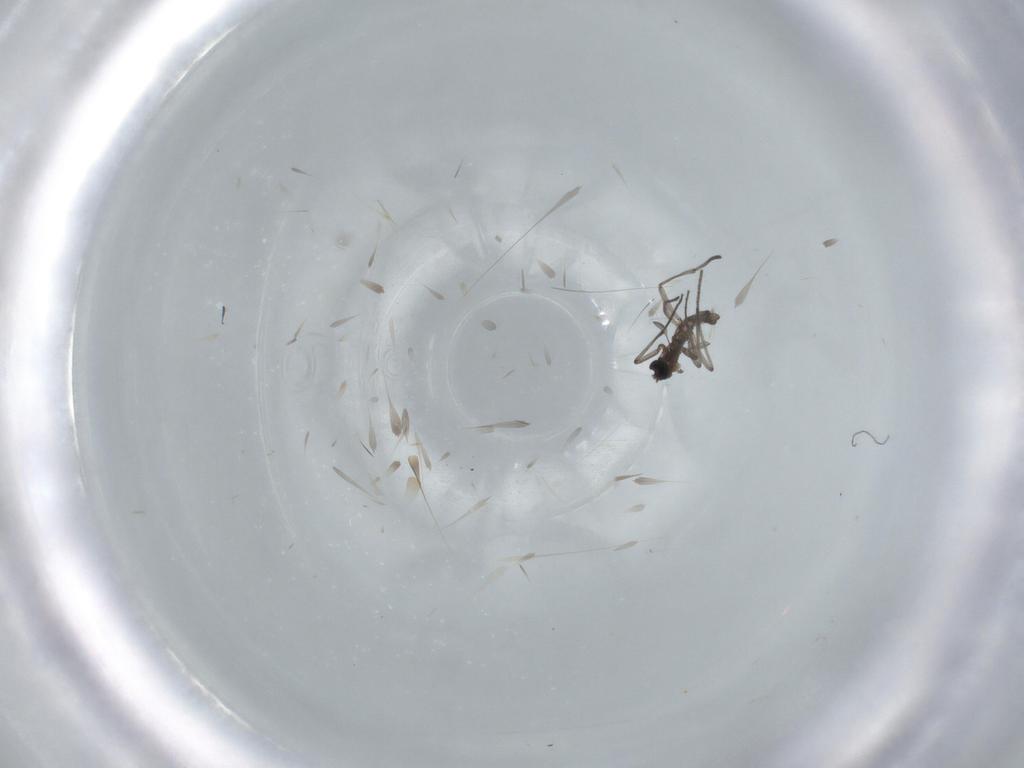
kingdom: Animalia
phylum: Arthropoda
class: Insecta
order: Diptera
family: Sciaridae
